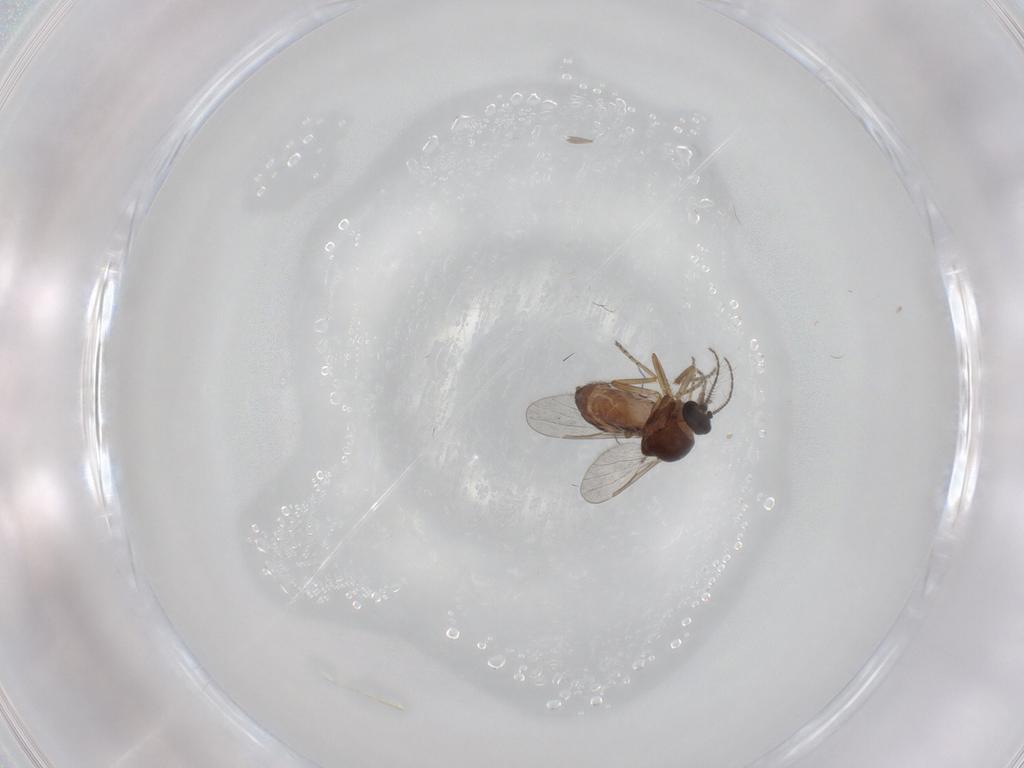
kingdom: Animalia
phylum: Arthropoda
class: Insecta
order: Diptera
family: Ceratopogonidae
